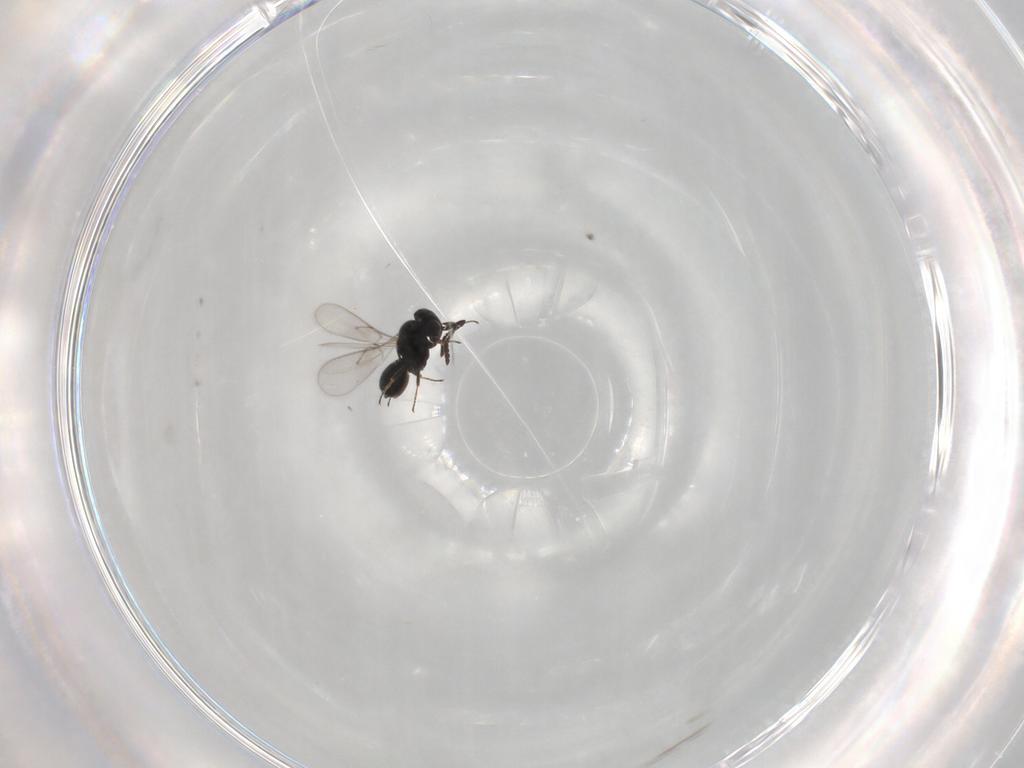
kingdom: Animalia
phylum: Arthropoda
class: Insecta
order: Hymenoptera
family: Scelionidae
